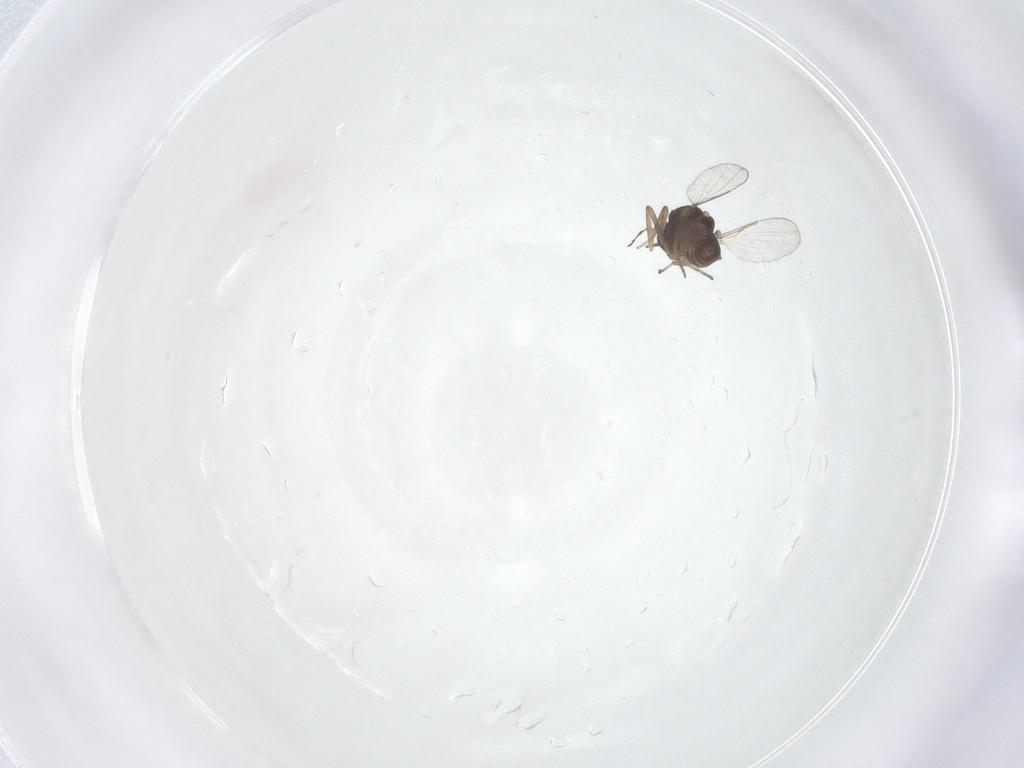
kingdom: Animalia
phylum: Arthropoda
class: Insecta
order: Diptera
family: Ceratopogonidae
